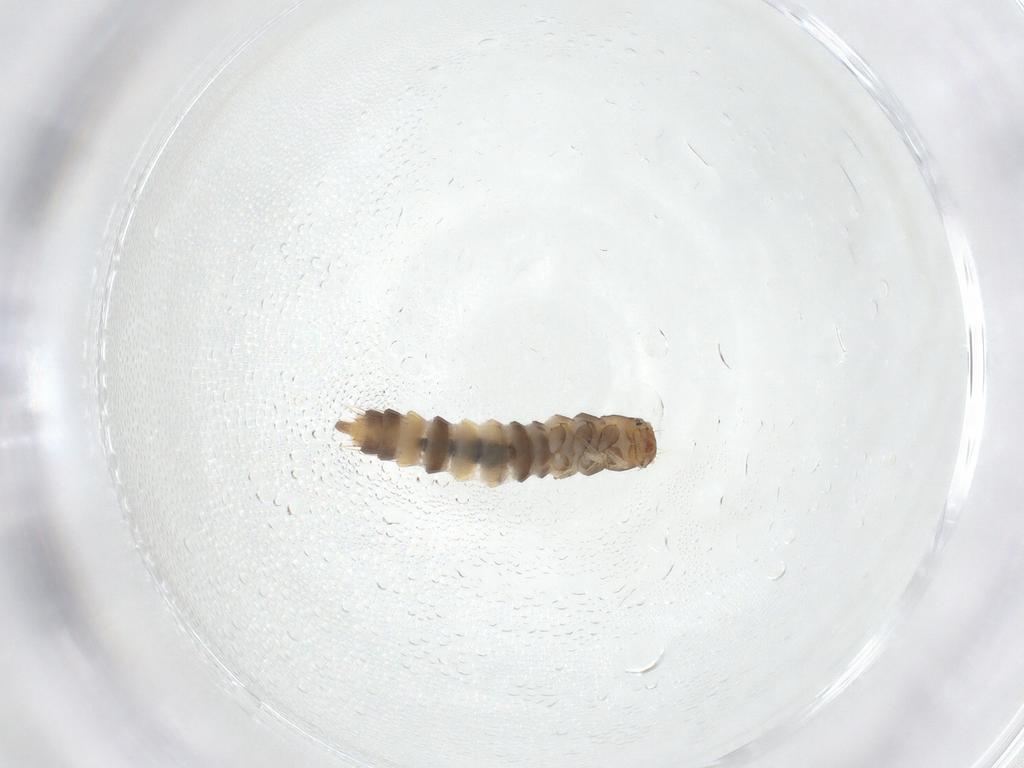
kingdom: Animalia
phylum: Arthropoda
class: Insecta
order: Coleoptera
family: Staphylinidae
